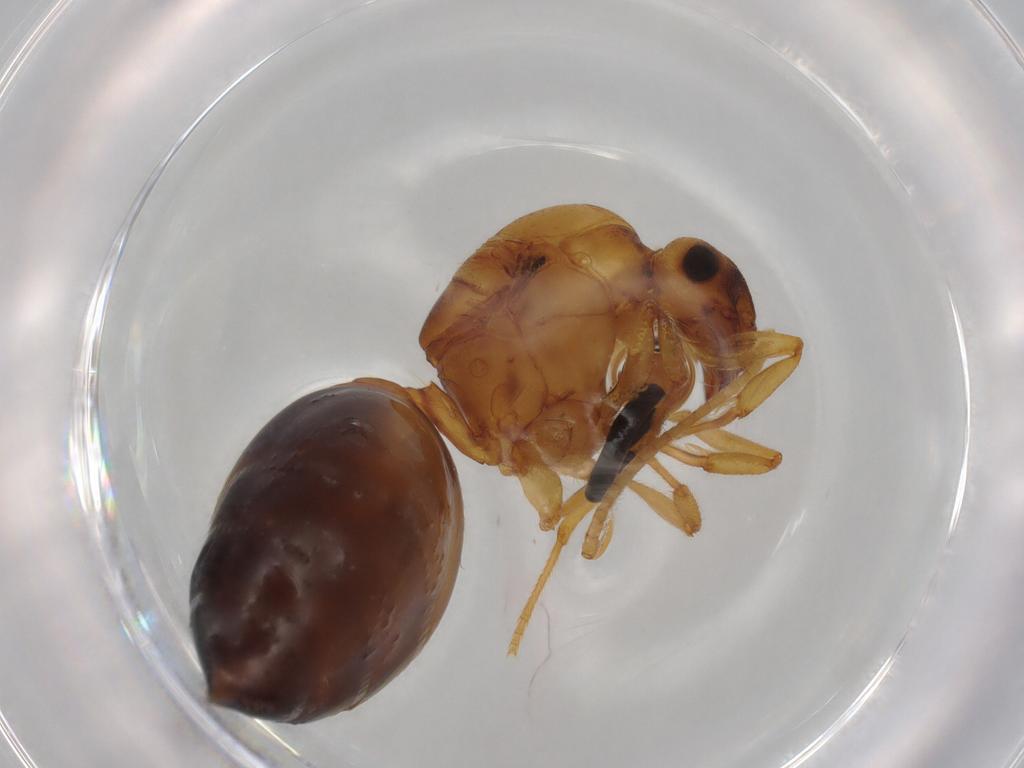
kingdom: Animalia
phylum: Arthropoda
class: Insecta
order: Hymenoptera
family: Formicidae
